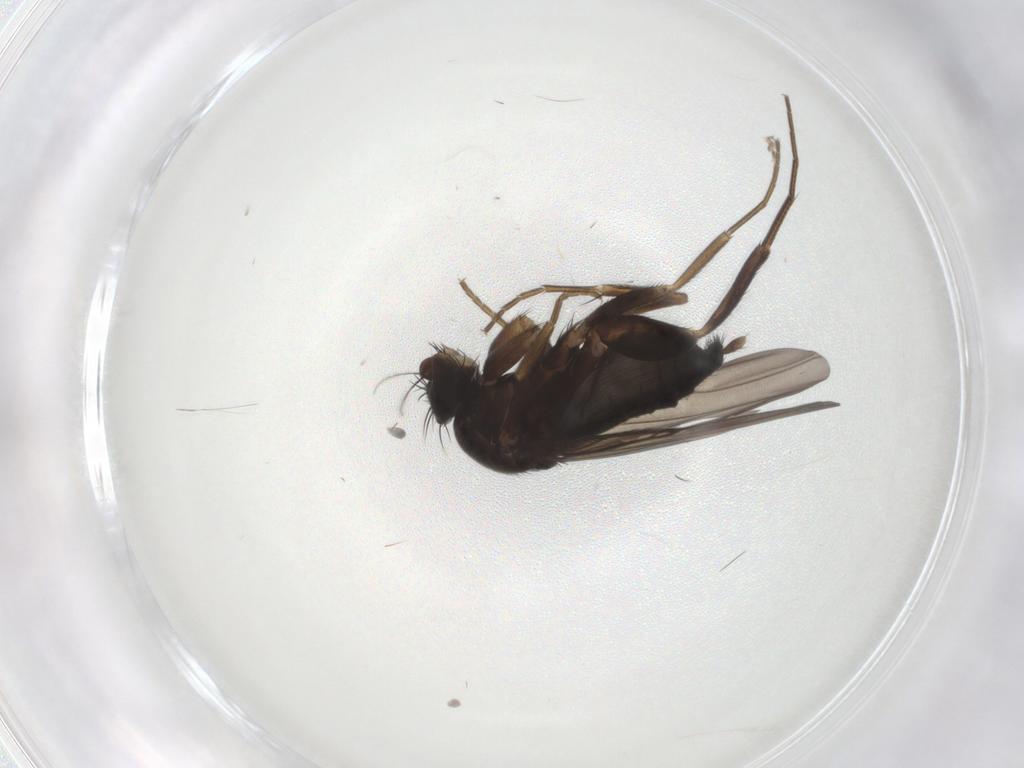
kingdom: Animalia
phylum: Arthropoda
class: Insecta
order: Diptera
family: Phoridae
